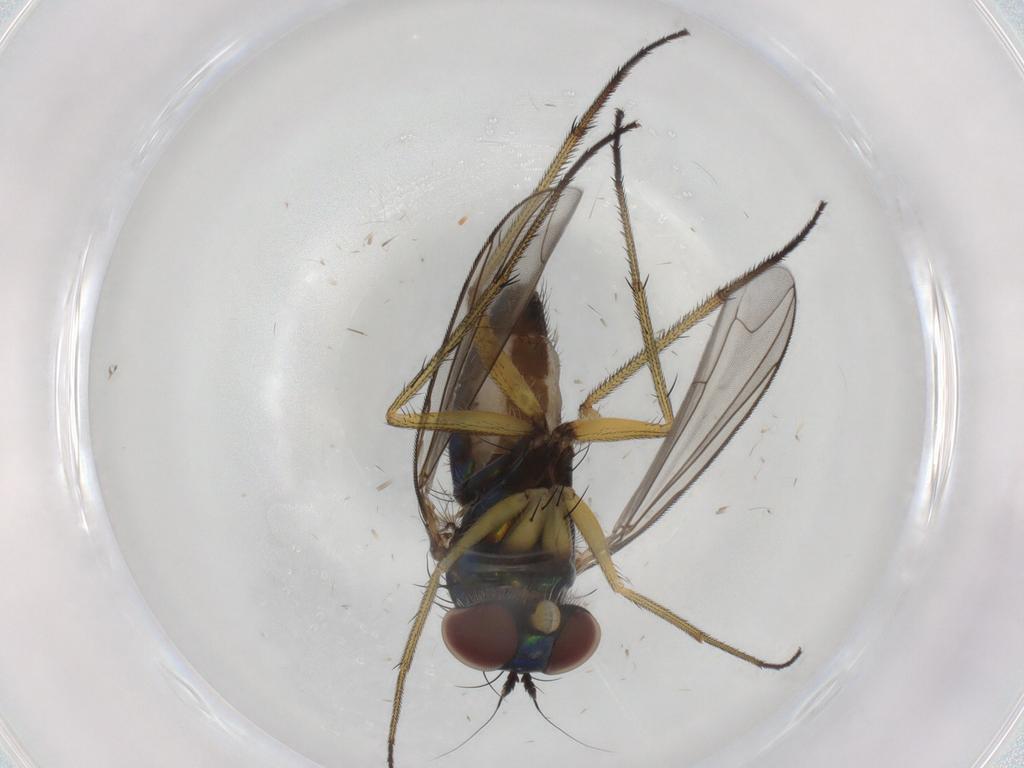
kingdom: Animalia
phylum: Arthropoda
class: Insecta
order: Diptera
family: Dolichopodidae
